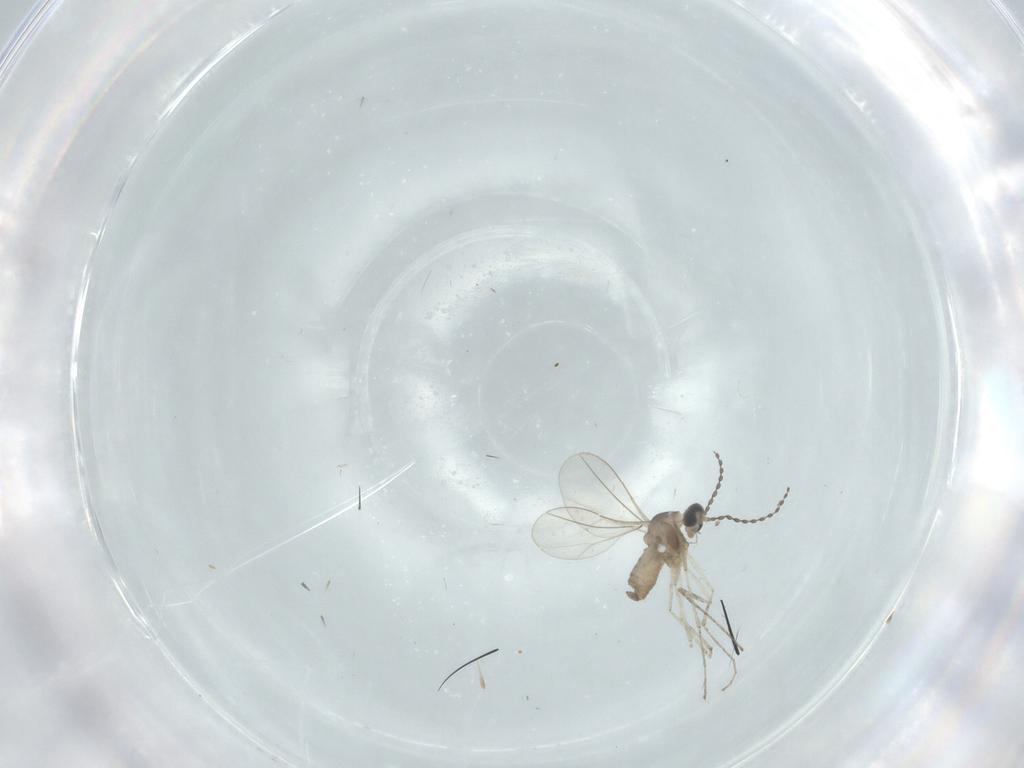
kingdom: Animalia
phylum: Arthropoda
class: Insecta
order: Diptera
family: Cecidomyiidae
